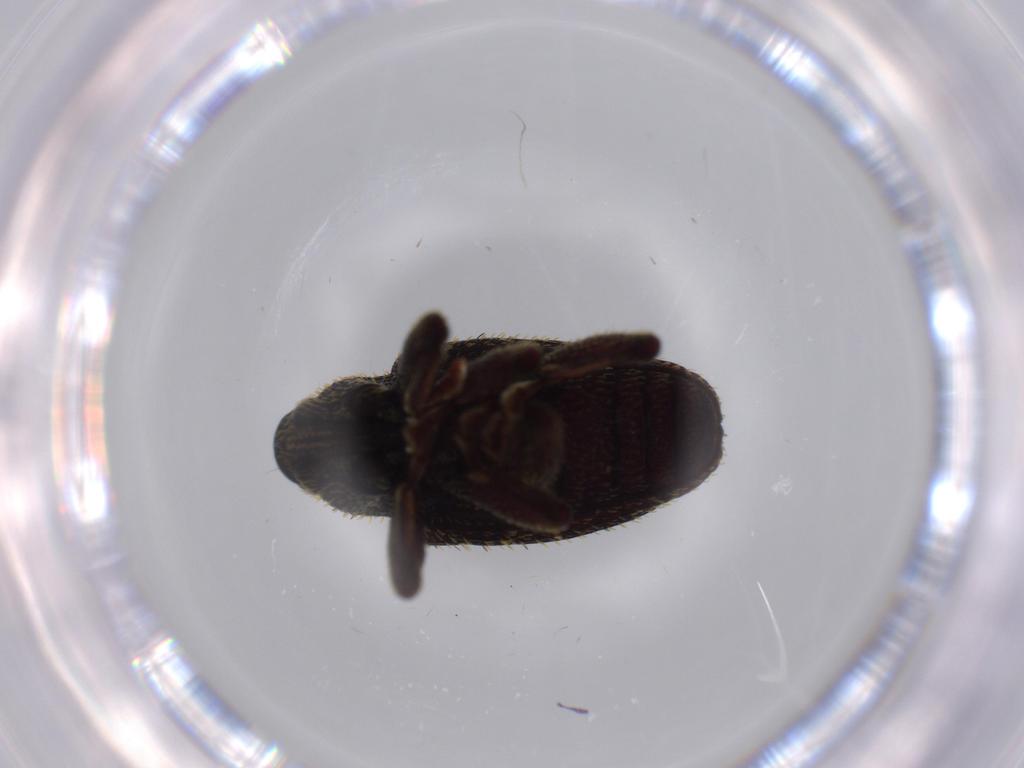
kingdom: Animalia
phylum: Arthropoda
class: Insecta
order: Coleoptera
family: Chrysomelidae
